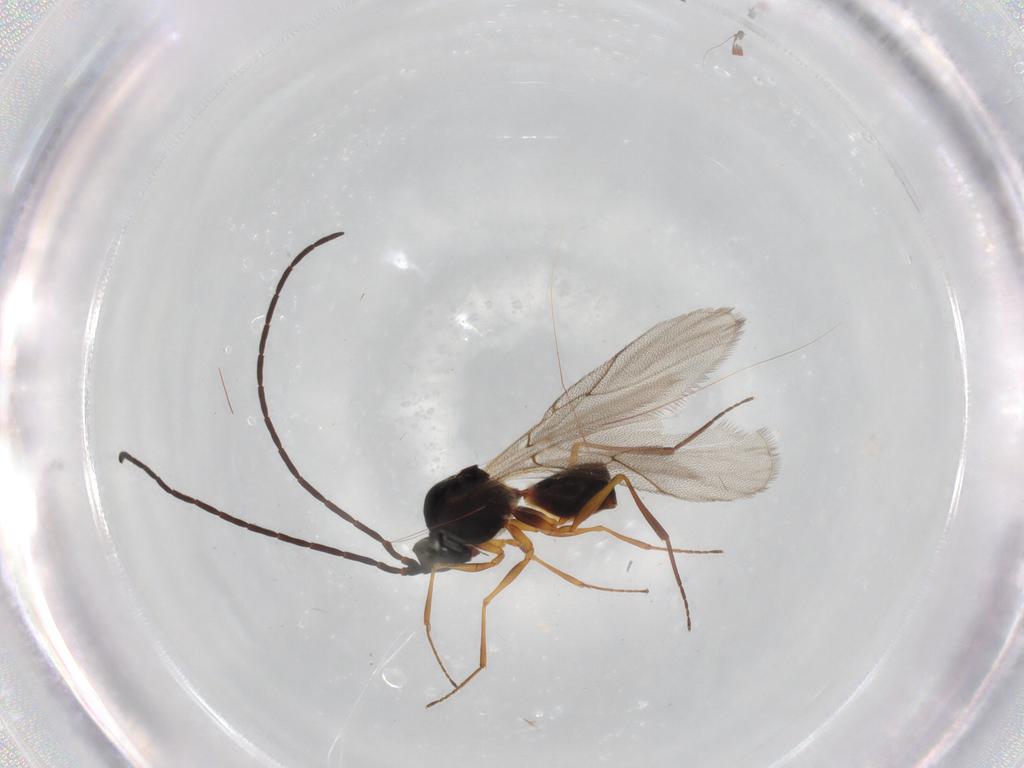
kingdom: Animalia
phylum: Arthropoda
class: Insecta
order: Hymenoptera
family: Figitidae
